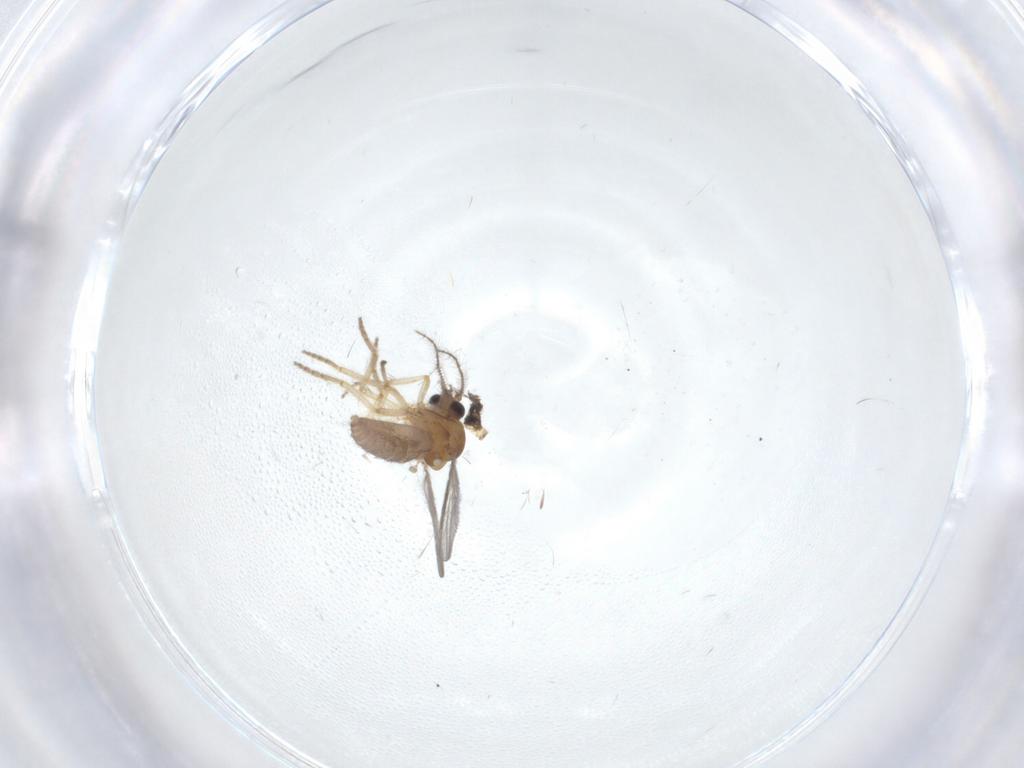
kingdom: Animalia
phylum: Arthropoda
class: Insecta
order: Diptera
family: Ceratopogonidae
